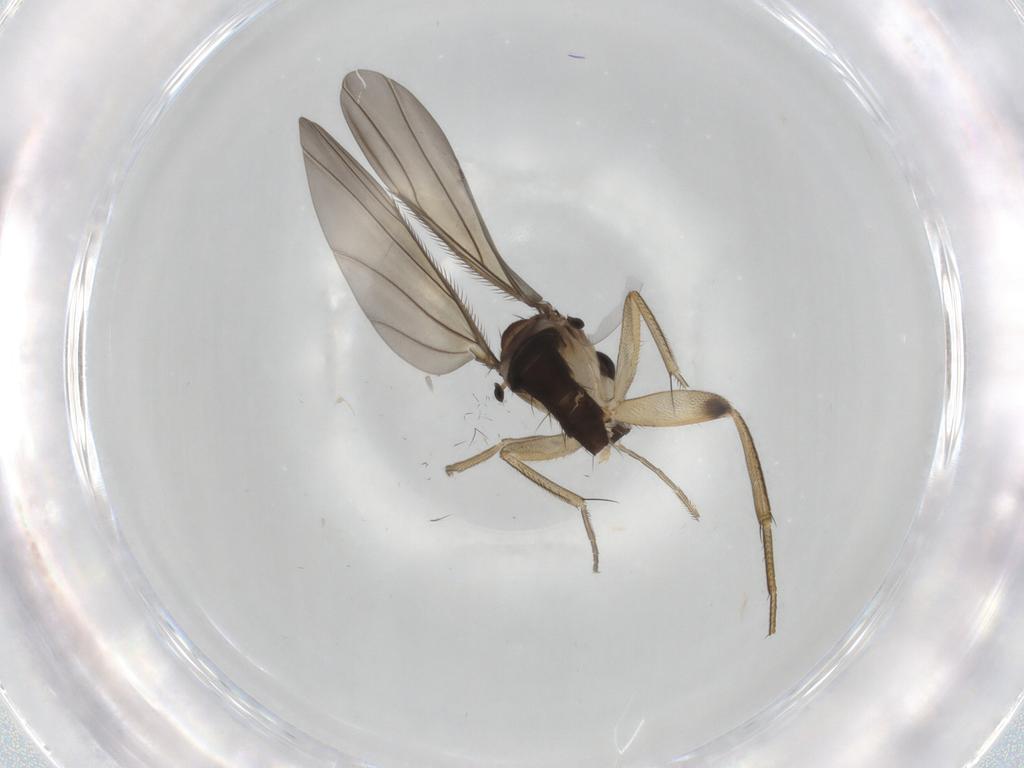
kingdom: Animalia
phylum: Arthropoda
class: Insecta
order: Diptera
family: Phoridae
